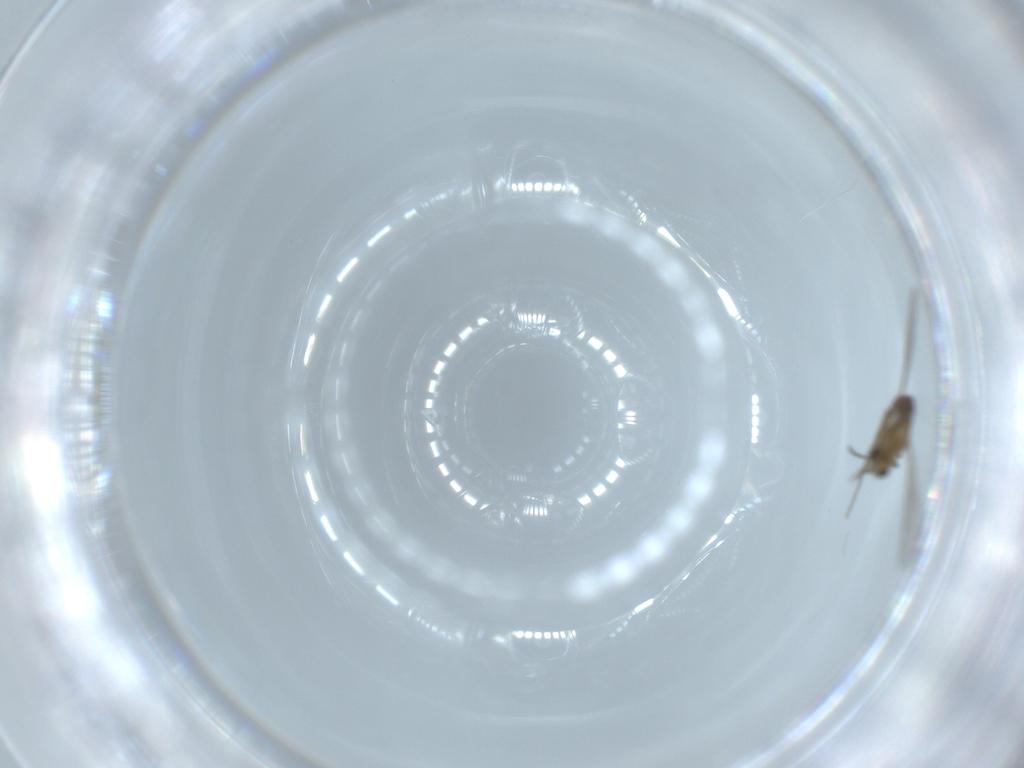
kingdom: Animalia
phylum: Arthropoda
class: Insecta
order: Diptera
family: Chironomidae
